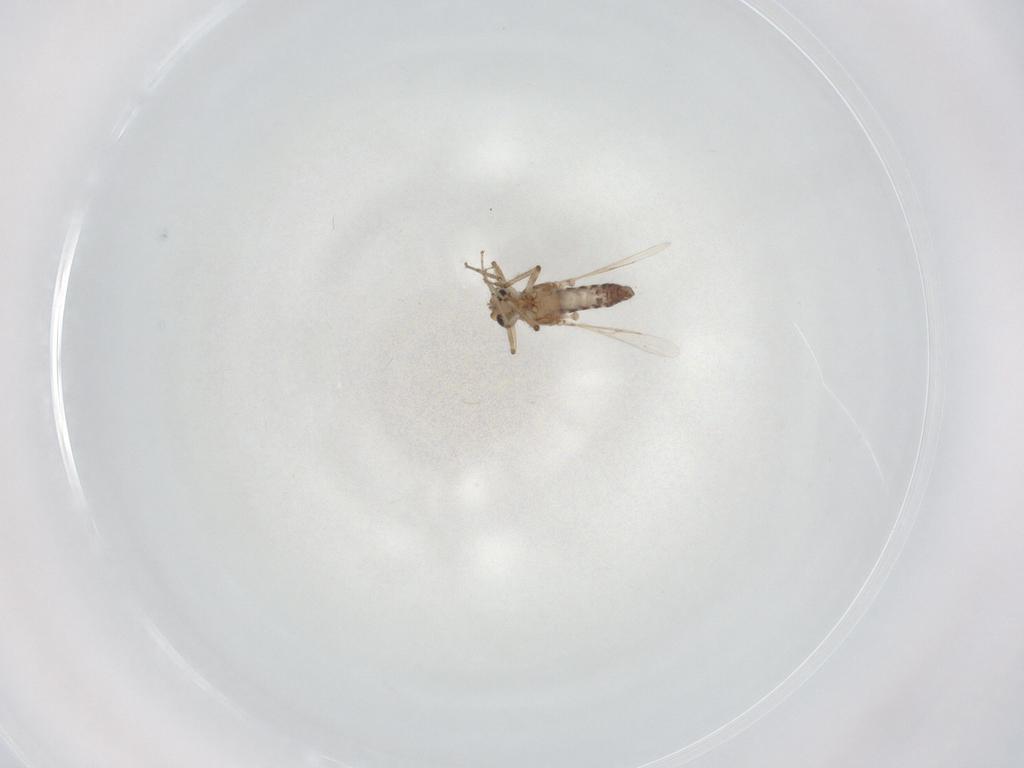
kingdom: Animalia
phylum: Arthropoda
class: Insecta
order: Diptera
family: Ceratopogonidae
